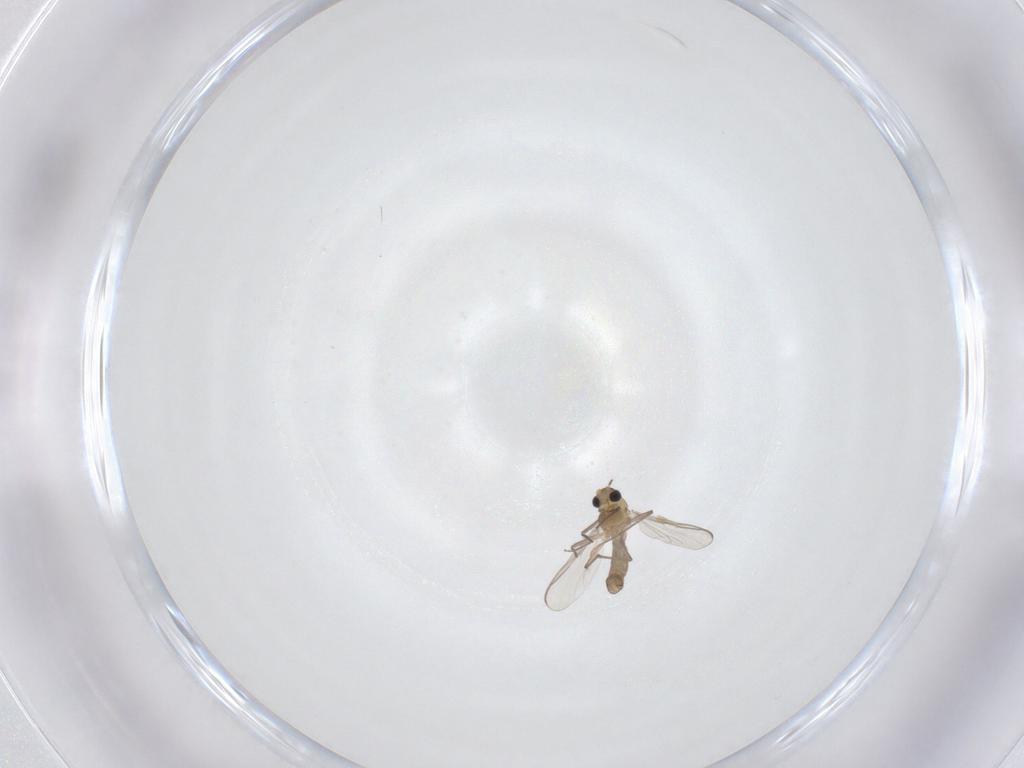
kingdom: Animalia
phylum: Arthropoda
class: Insecta
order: Diptera
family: Chironomidae
